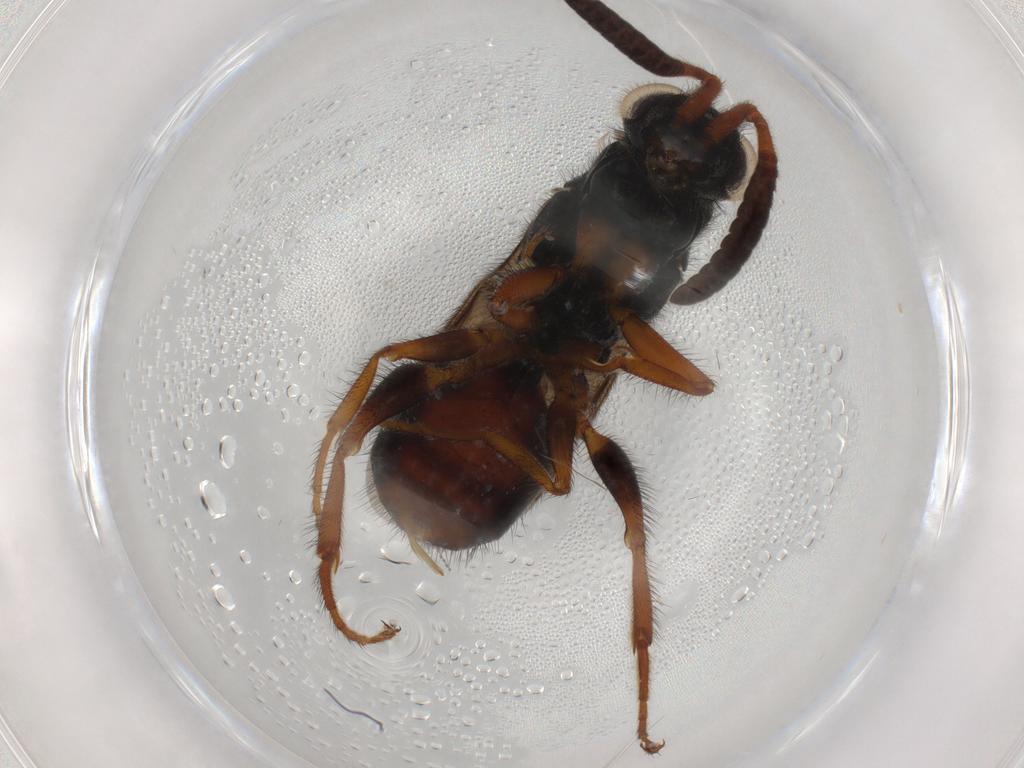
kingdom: Animalia
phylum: Arthropoda
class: Insecta
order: Hymenoptera
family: Chrysididae
